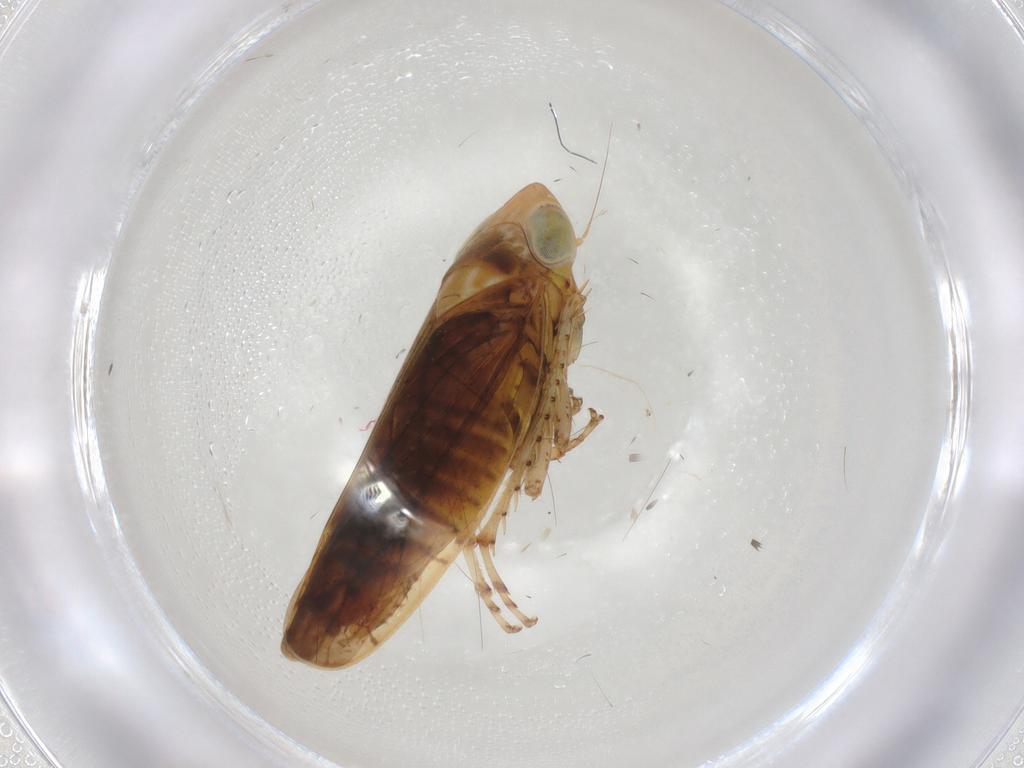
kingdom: Animalia
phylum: Arthropoda
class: Insecta
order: Hemiptera
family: Cicadellidae
